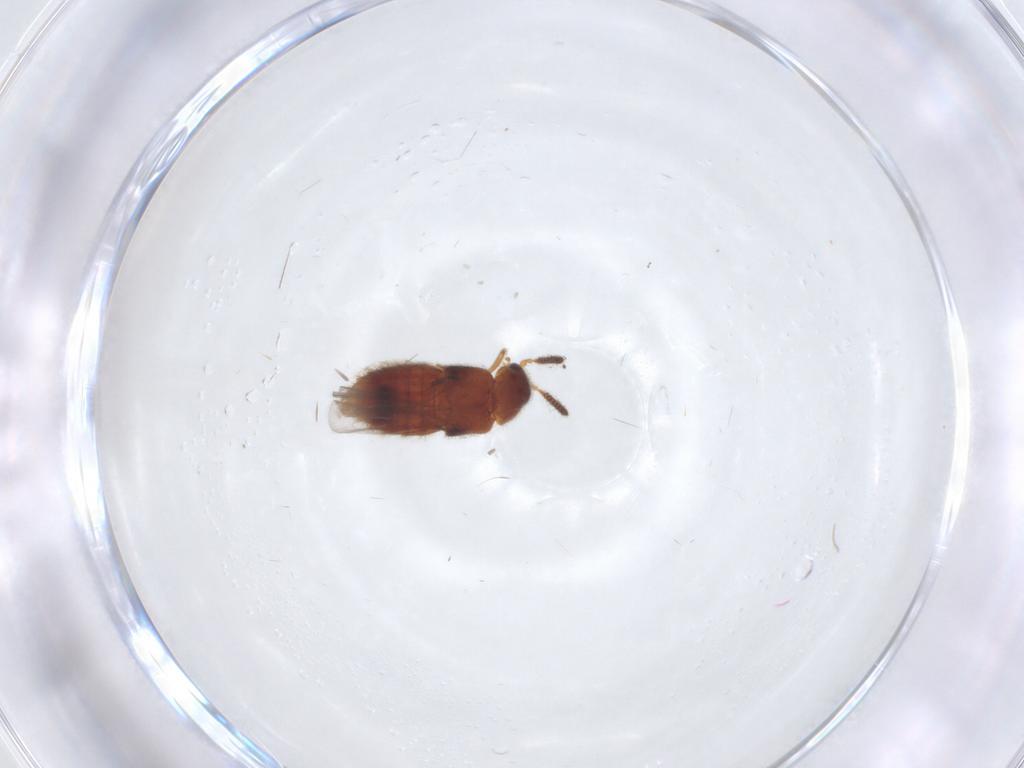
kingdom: Animalia
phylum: Arthropoda
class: Insecta
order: Coleoptera
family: Staphylinidae
